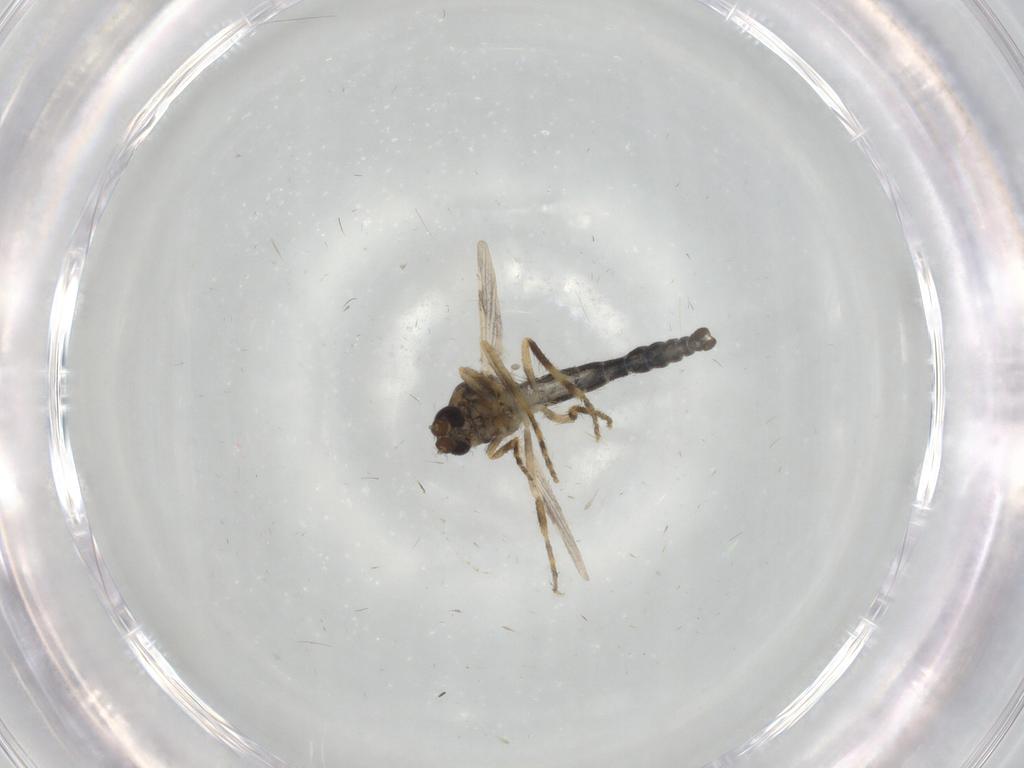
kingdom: Animalia
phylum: Arthropoda
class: Insecta
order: Diptera
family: Ceratopogonidae
